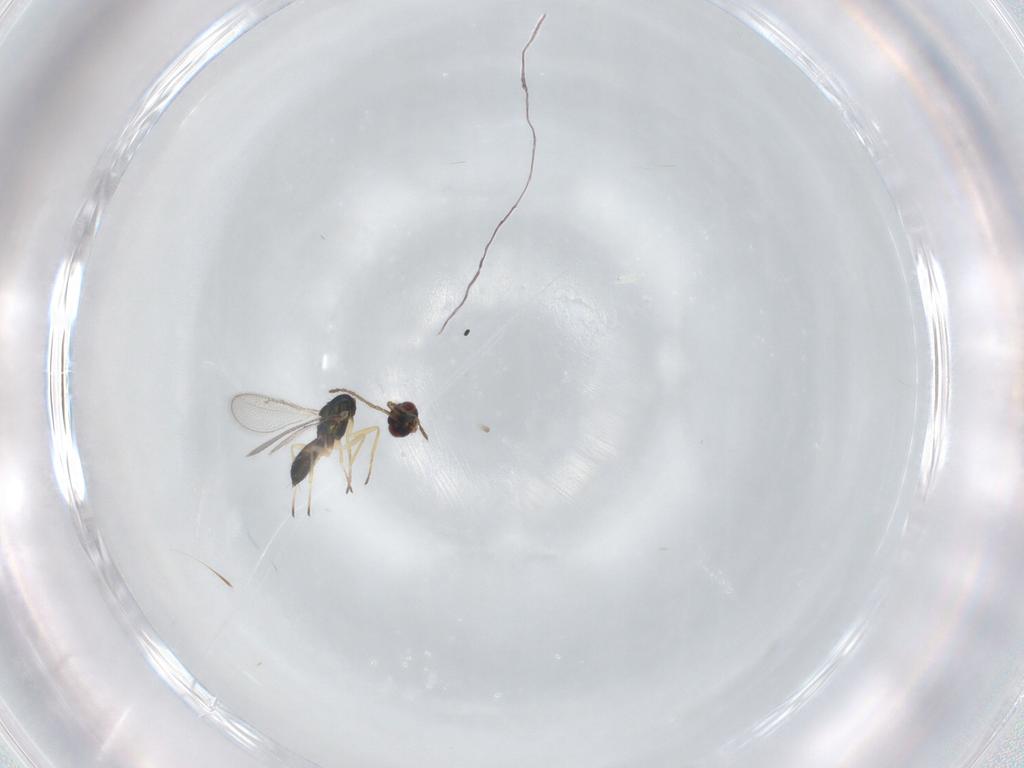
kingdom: Animalia
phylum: Arthropoda
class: Insecta
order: Hymenoptera
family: Eulophidae
